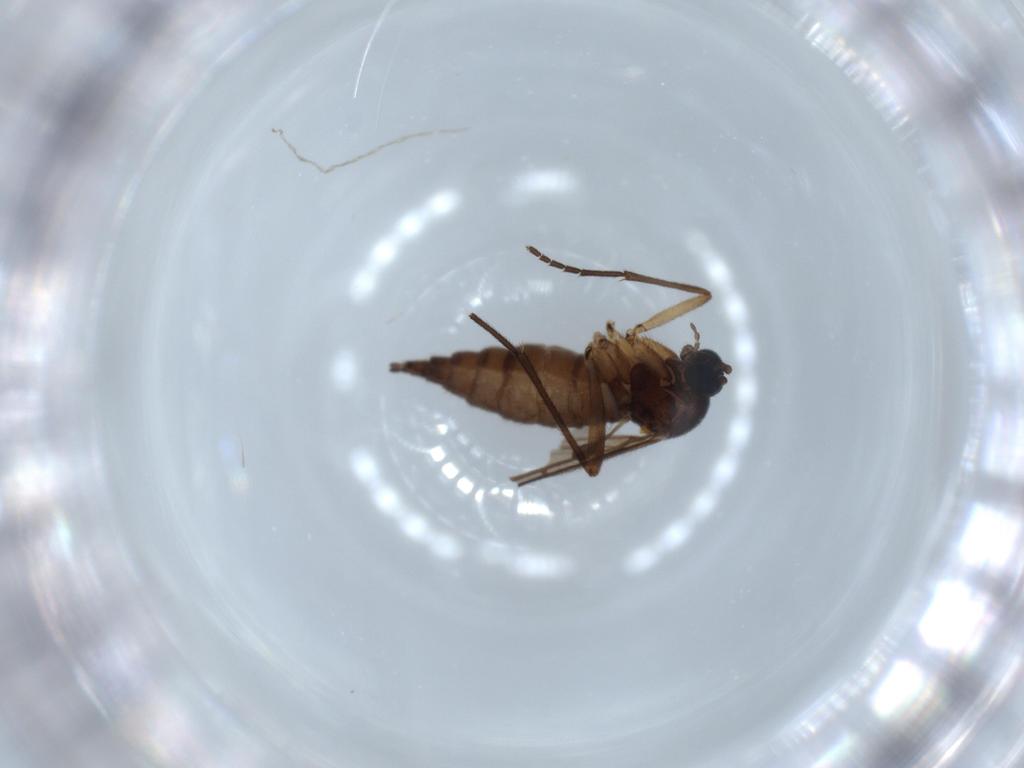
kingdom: Animalia
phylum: Arthropoda
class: Insecta
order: Diptera
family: Sciaridae
